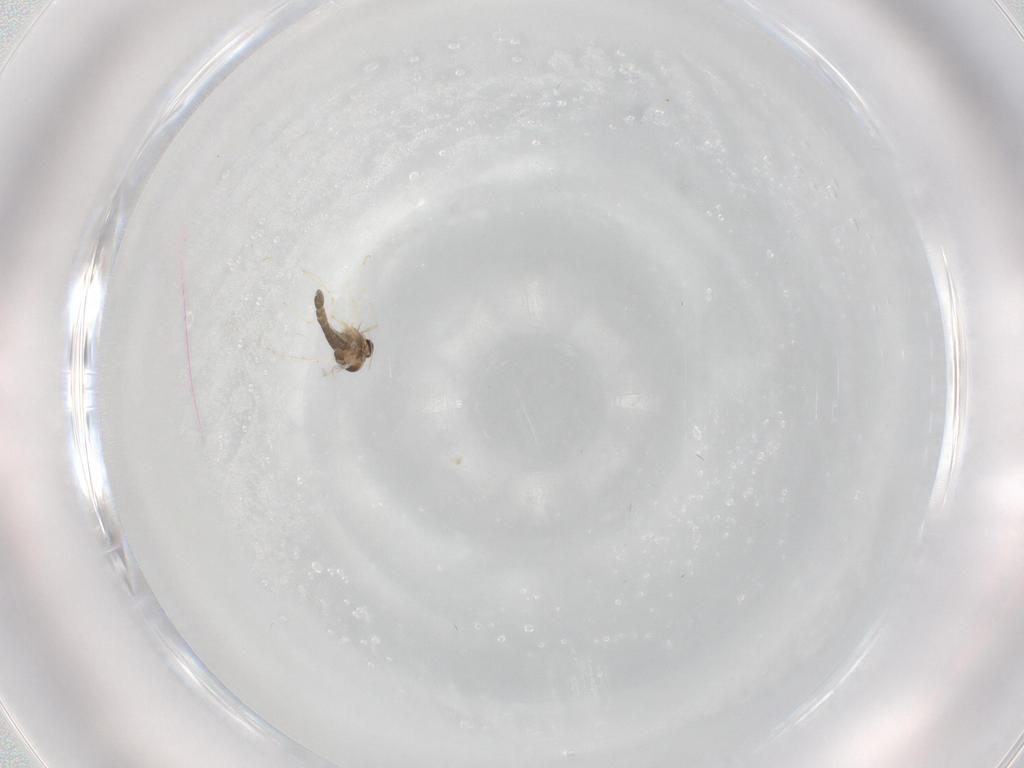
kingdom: Animalia
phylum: Arthropoda
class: Insecta
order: Diptera
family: Chironomidae
